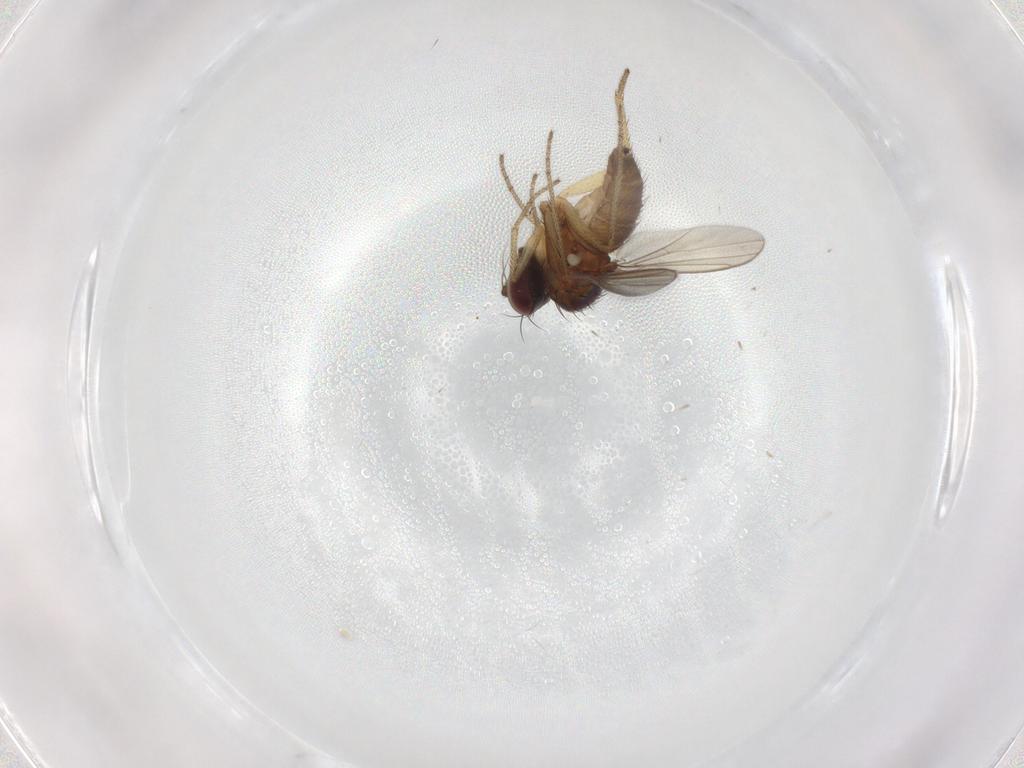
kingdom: Animalia
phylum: Arthropoda
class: Insecta
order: Diptera
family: Dolichopodidae
